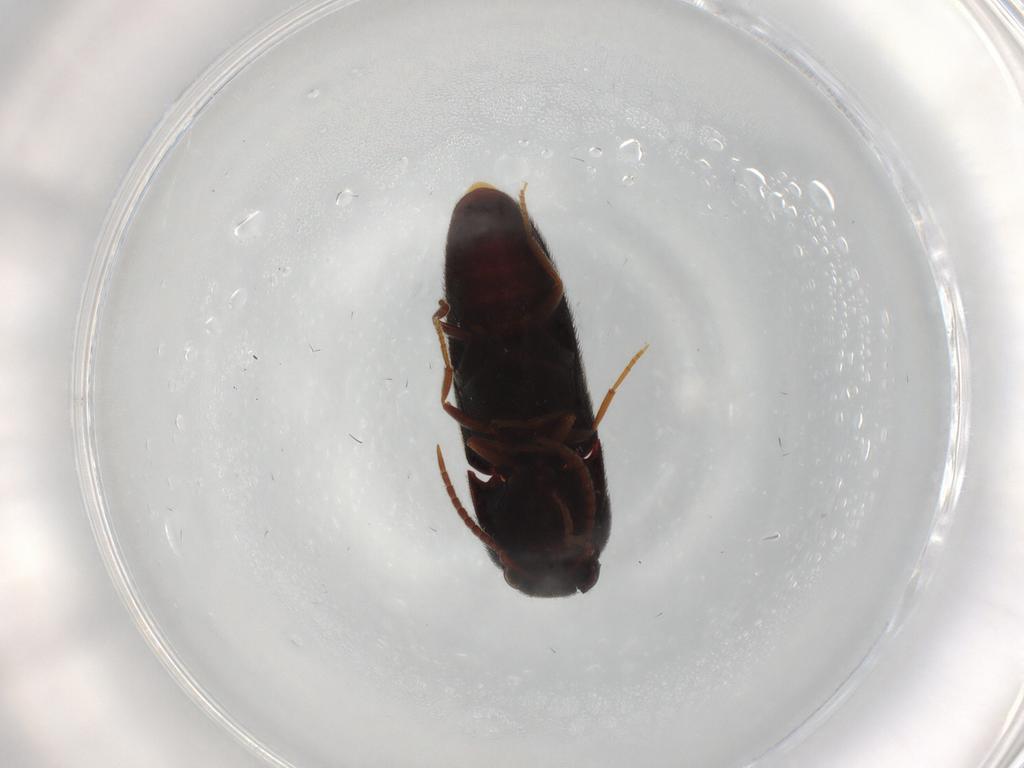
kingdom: Animalia
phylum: Arthropoda
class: Insecta
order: Coleoptera
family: Eucnemidae
